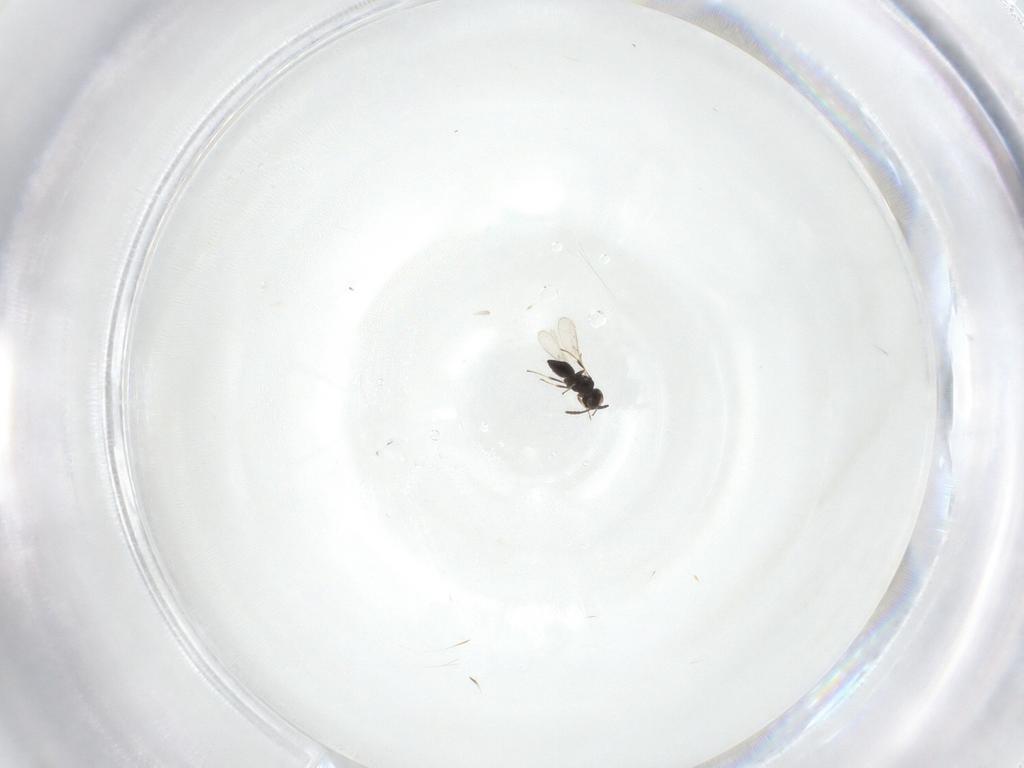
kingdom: Animalia
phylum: Arthropoda
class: Insecta
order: Hymenoptera
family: Scelionidae
